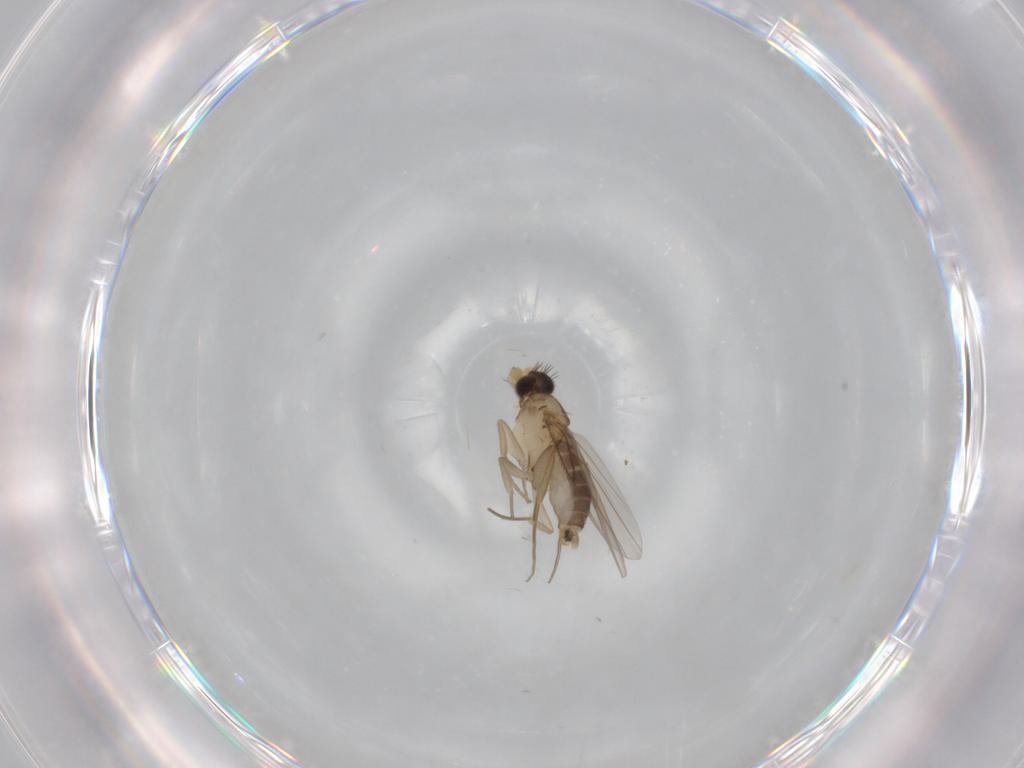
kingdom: Animalia
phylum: Arthropoda
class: Insecta
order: Diptera
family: Phoridae
